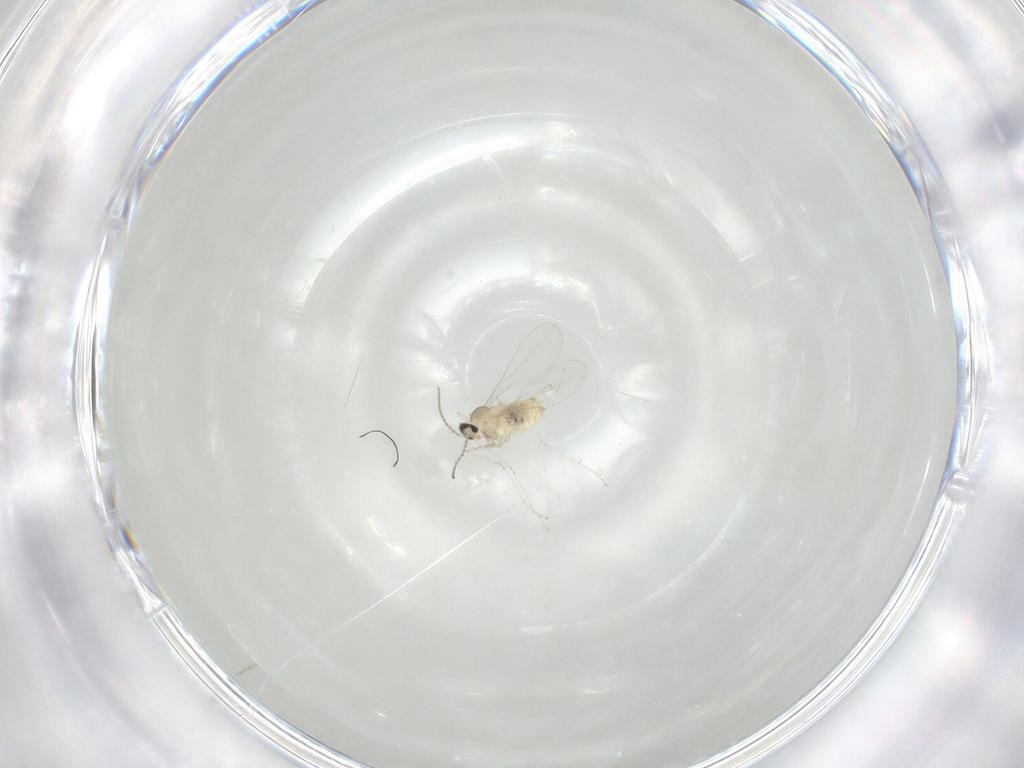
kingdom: Animalia
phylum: Arthropoda
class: Insecta
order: Diptera
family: Cecidomyiidae
